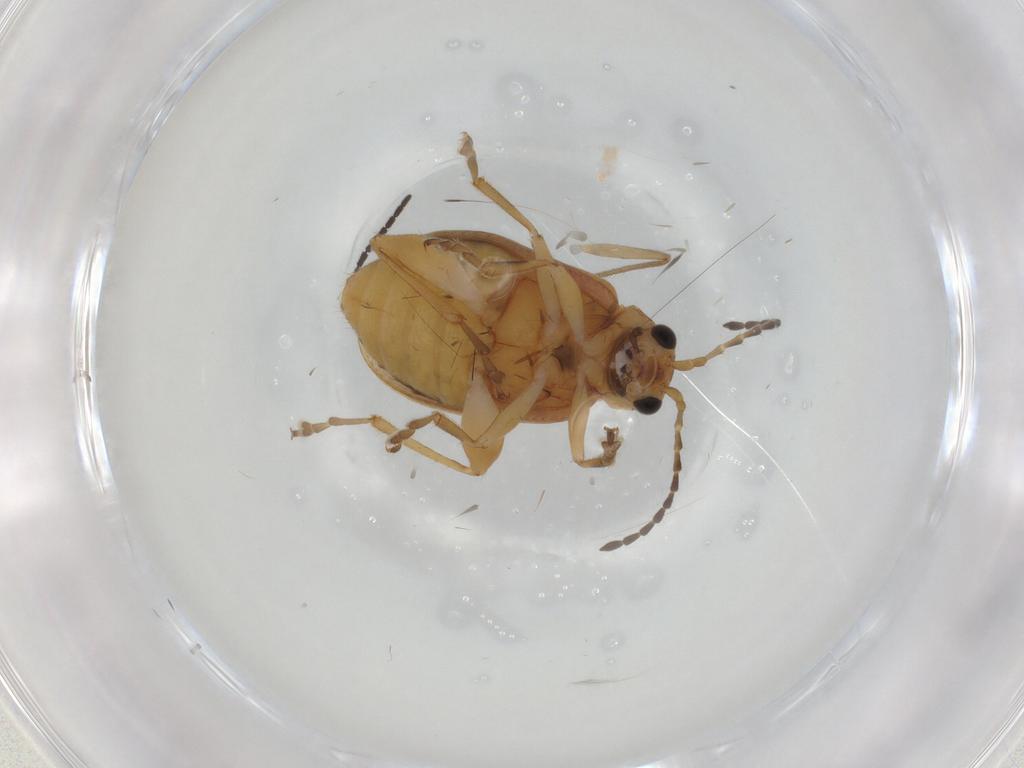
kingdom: Animalia
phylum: Arthropoda
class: Insecta
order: Coleoptera
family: Chrysomelidae
